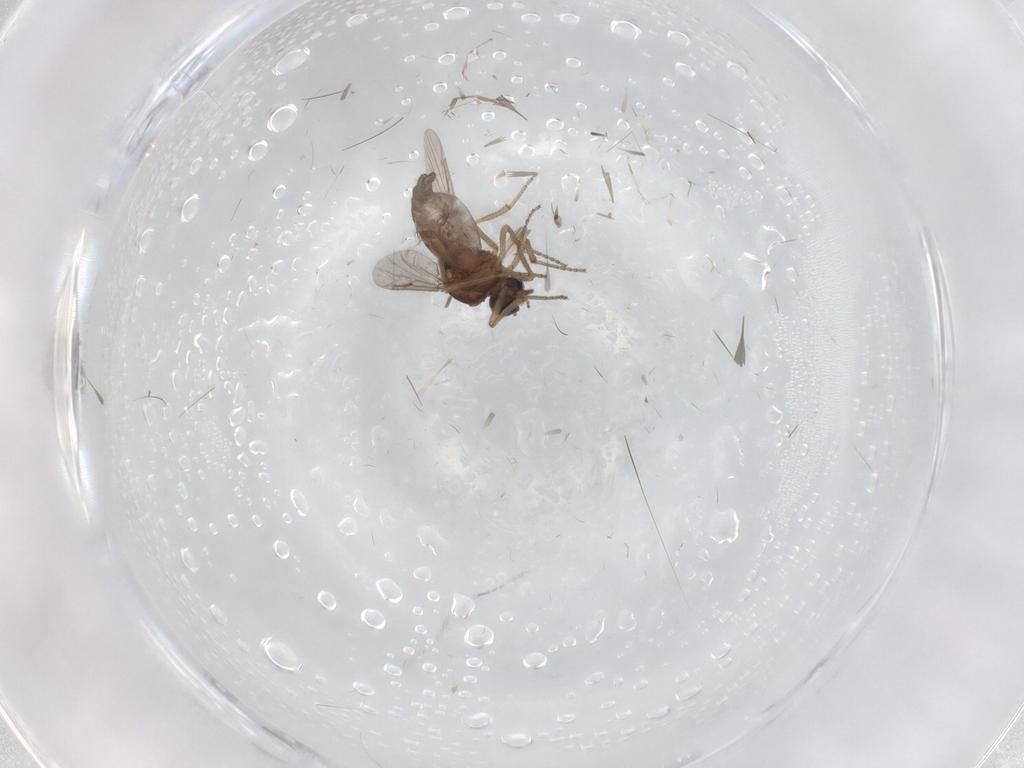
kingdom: Animalia
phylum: Arthropoda
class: Insecta
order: Diptera
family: Ceratopogonidae
